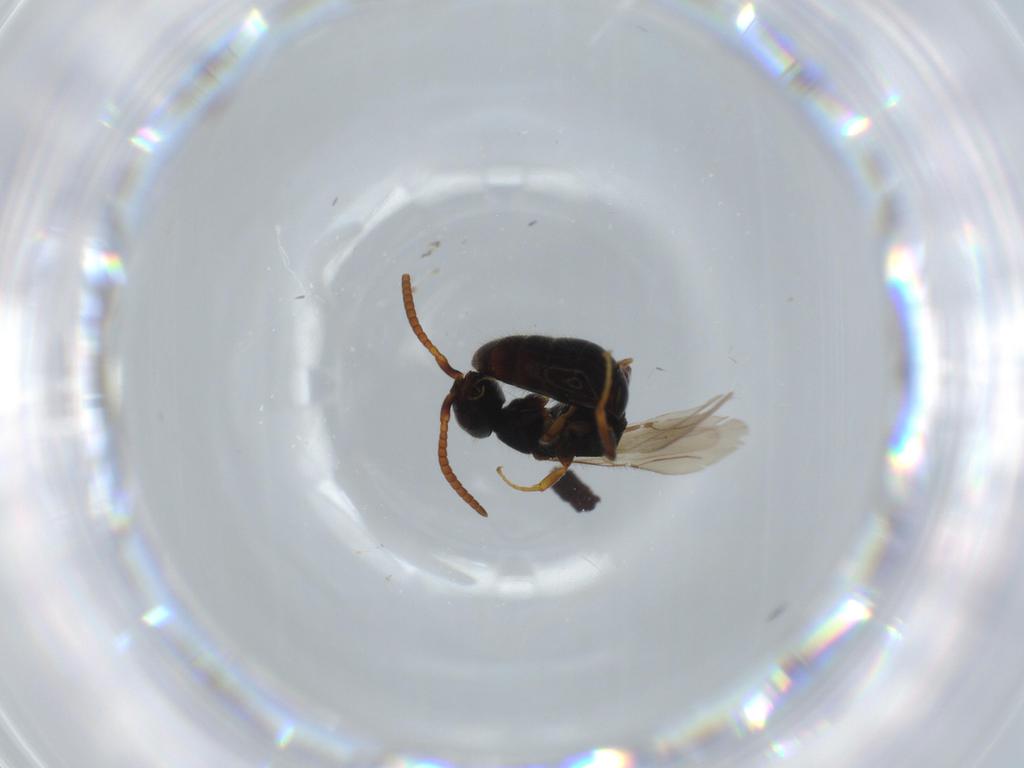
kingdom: Animalia
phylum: Arthropoda
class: Insecta
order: Hymenoptera
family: Bethylidae
